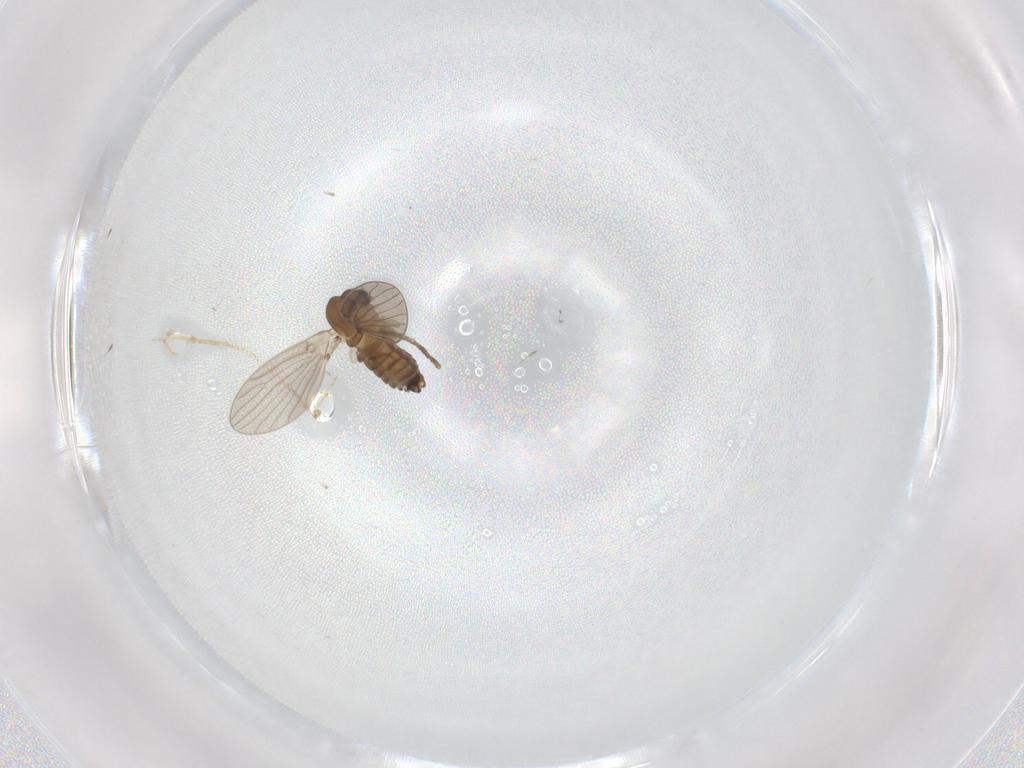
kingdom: Animalia
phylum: Arthropoda
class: Insecta
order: Diptera
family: Limoniidae
